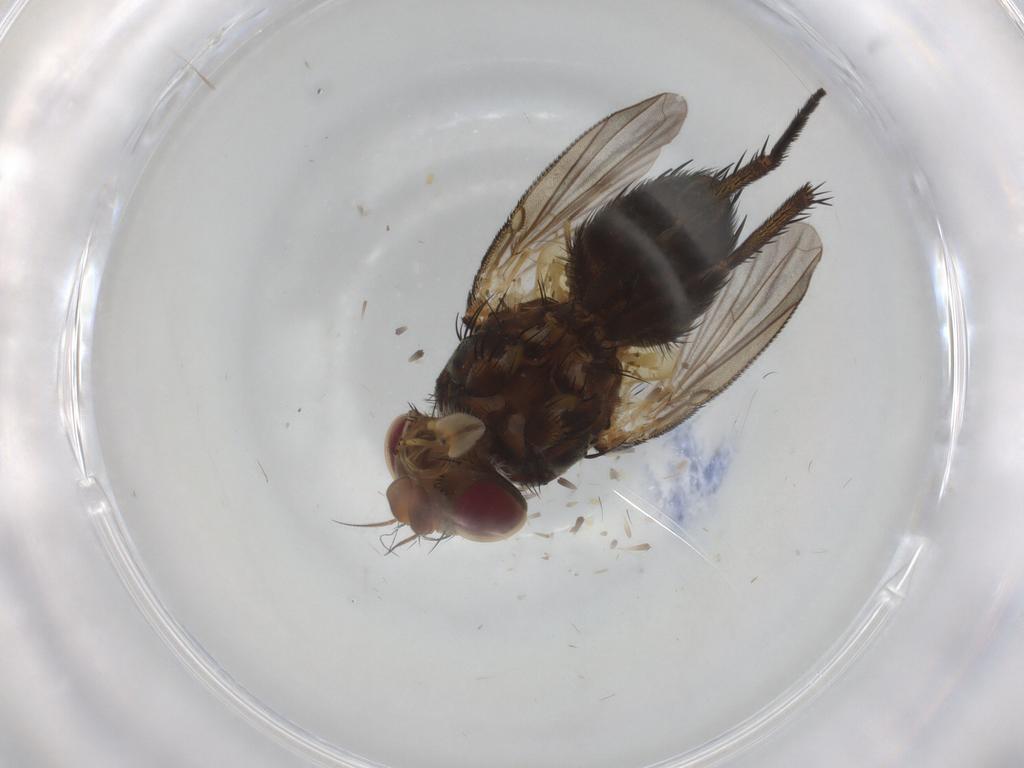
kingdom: Animalia
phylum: Arthropoda
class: Insecta
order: Diptera
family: Tachinidae
